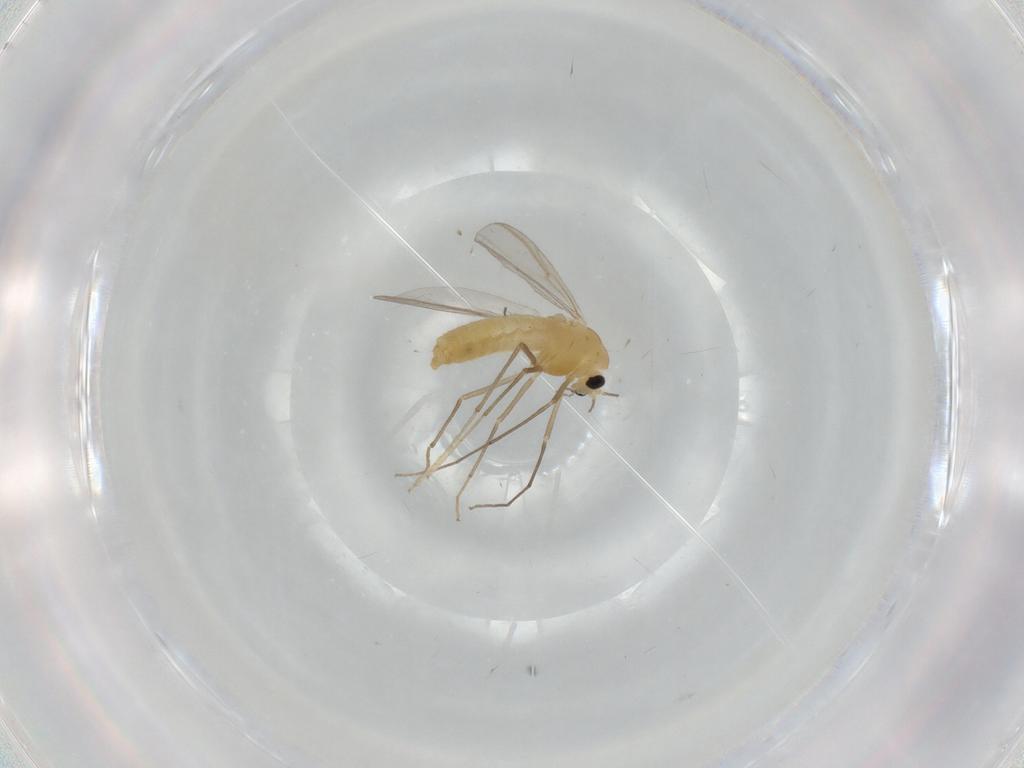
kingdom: Animalia
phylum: Arthropoda
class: Insecta
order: Diptera
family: Chironomidae
